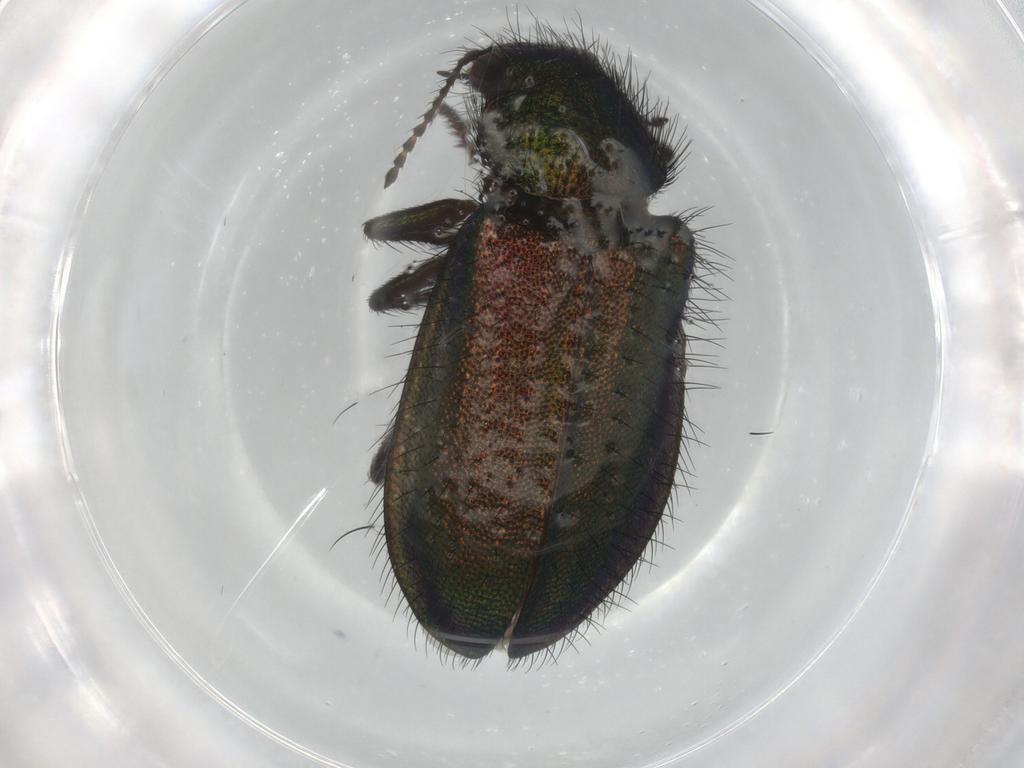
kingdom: Animalia
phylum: Arthropoda
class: Insecta
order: Coleoptera
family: Melyridae
